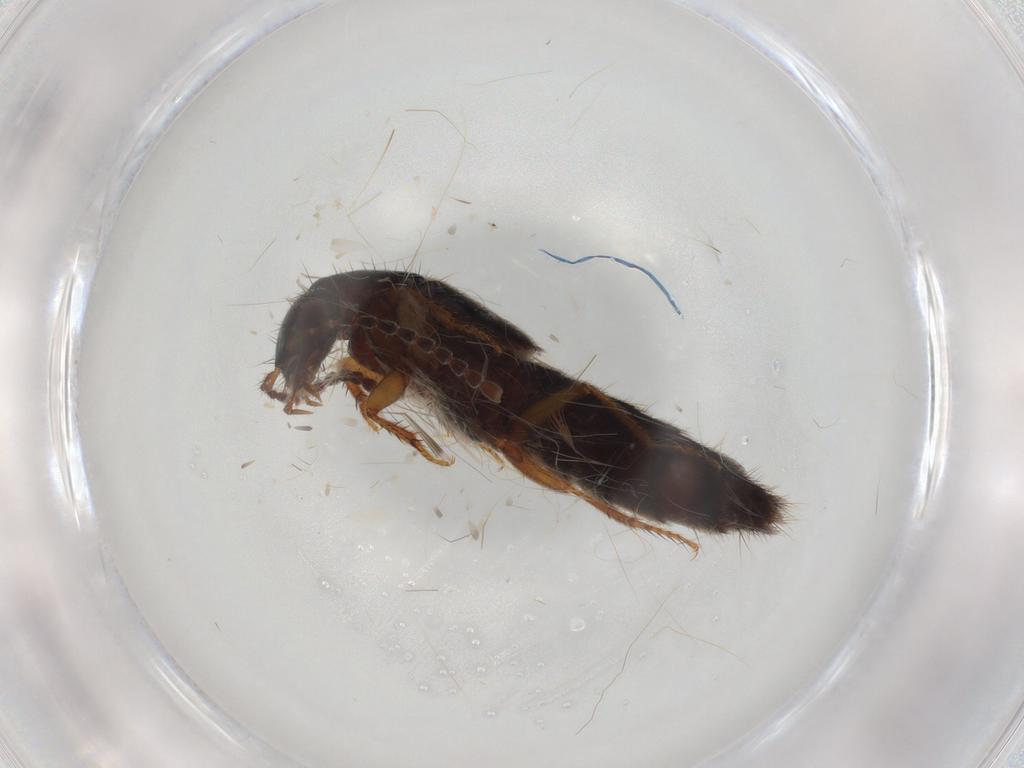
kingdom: Animalia
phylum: Arthropoda
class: Insecta
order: Coleoptera
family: Staphylinidae
